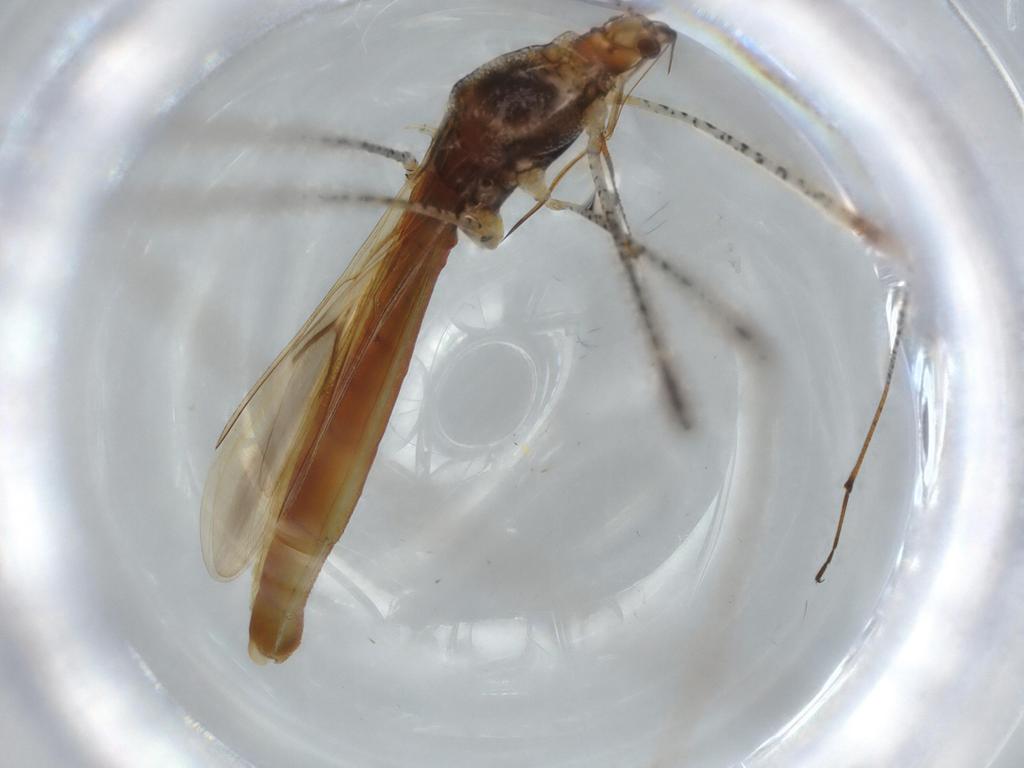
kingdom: Animalia
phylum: Arthropoda
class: Insecta
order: Hemiptera
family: Berytidae
